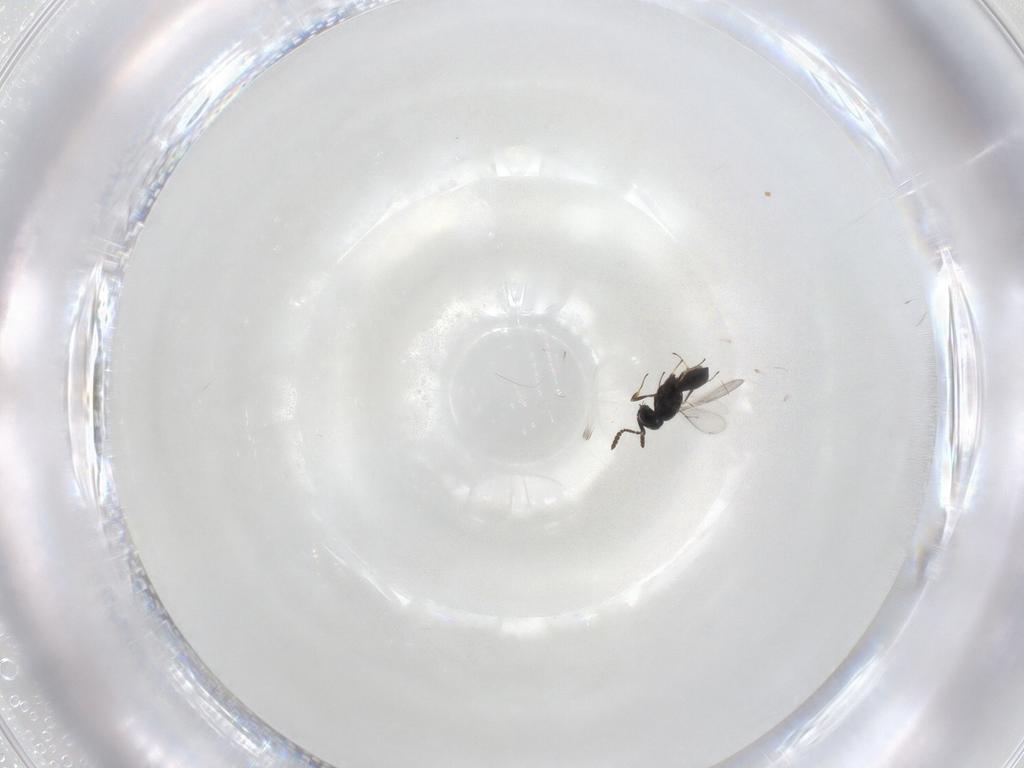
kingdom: Animalia
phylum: Arthropoda
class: Insecta
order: Hymenoptera
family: Scelionidae
